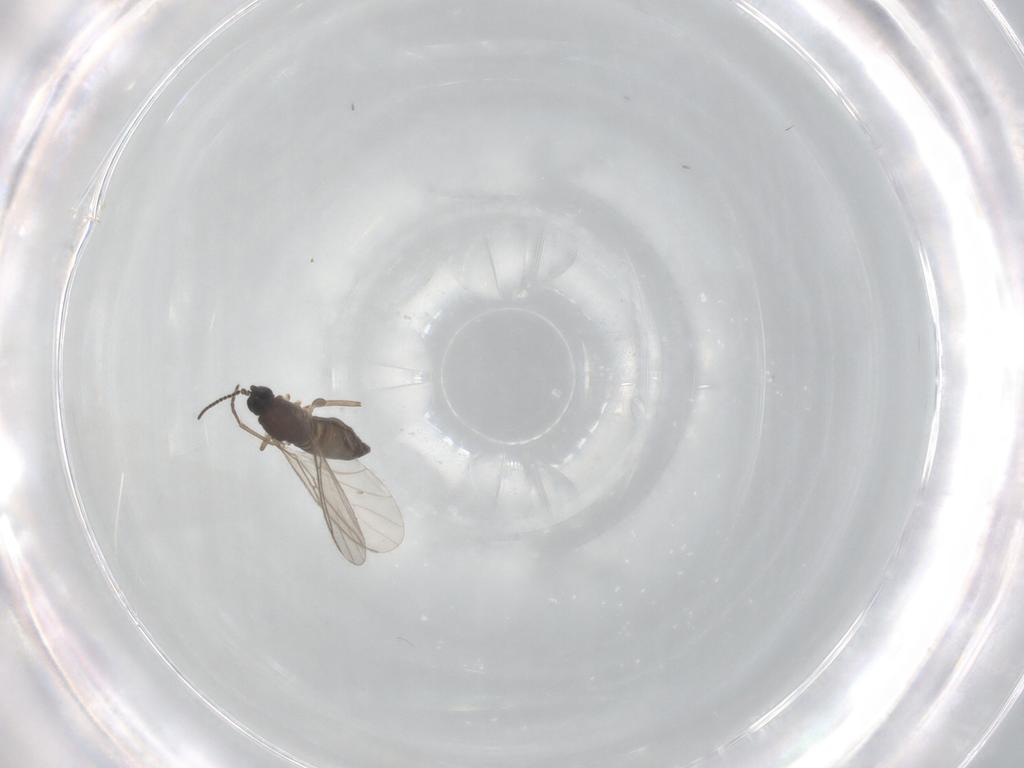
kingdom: Animalia
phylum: Arthropoda
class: Insecta
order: Diptera
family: Sciaridae
